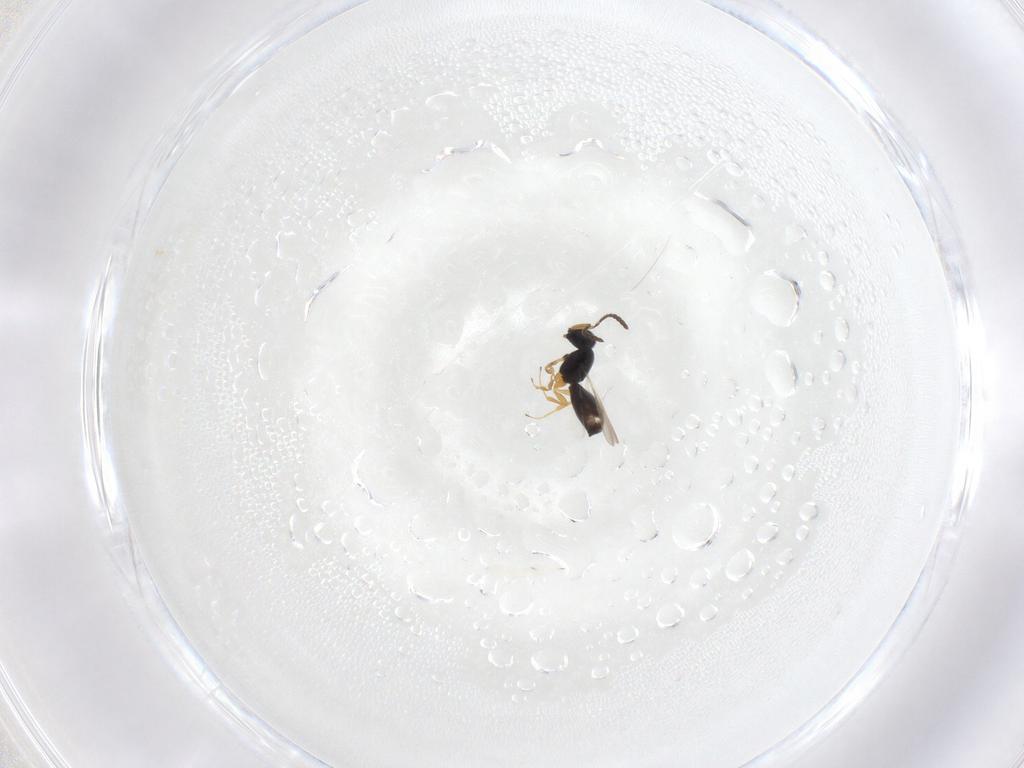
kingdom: Animalia
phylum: Arthropoda
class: Insecta
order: Hymenoptera
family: Scelionidae
